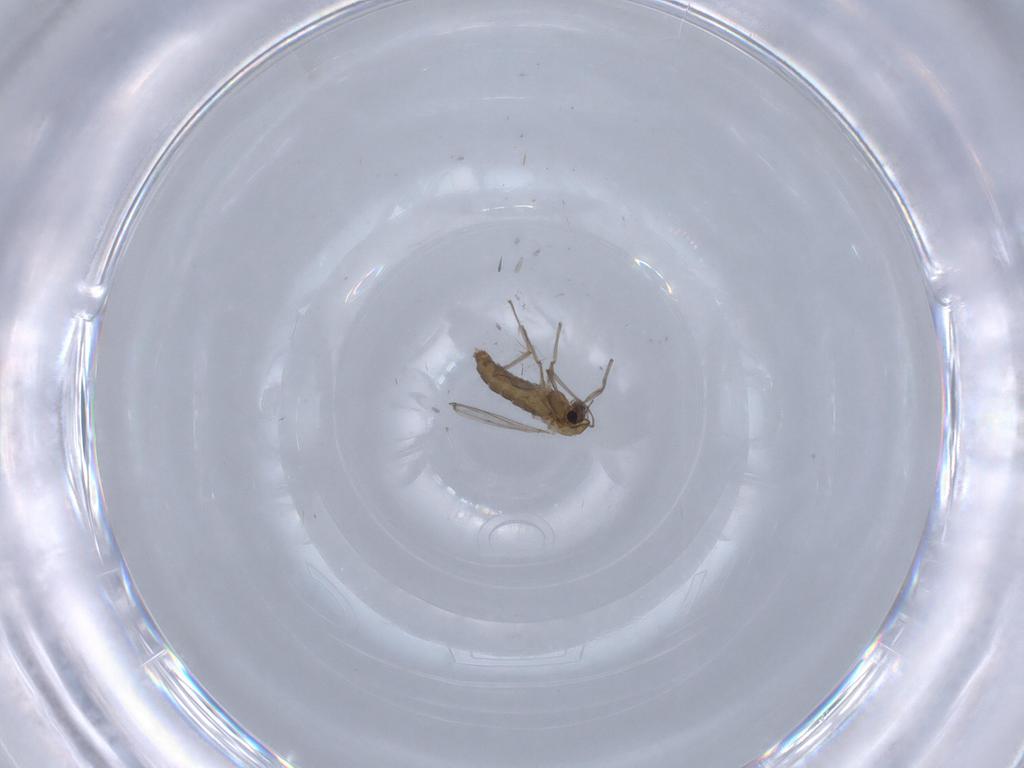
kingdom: Animalia
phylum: Arthropoda
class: Insecta
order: Diptera
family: Chironomidae
